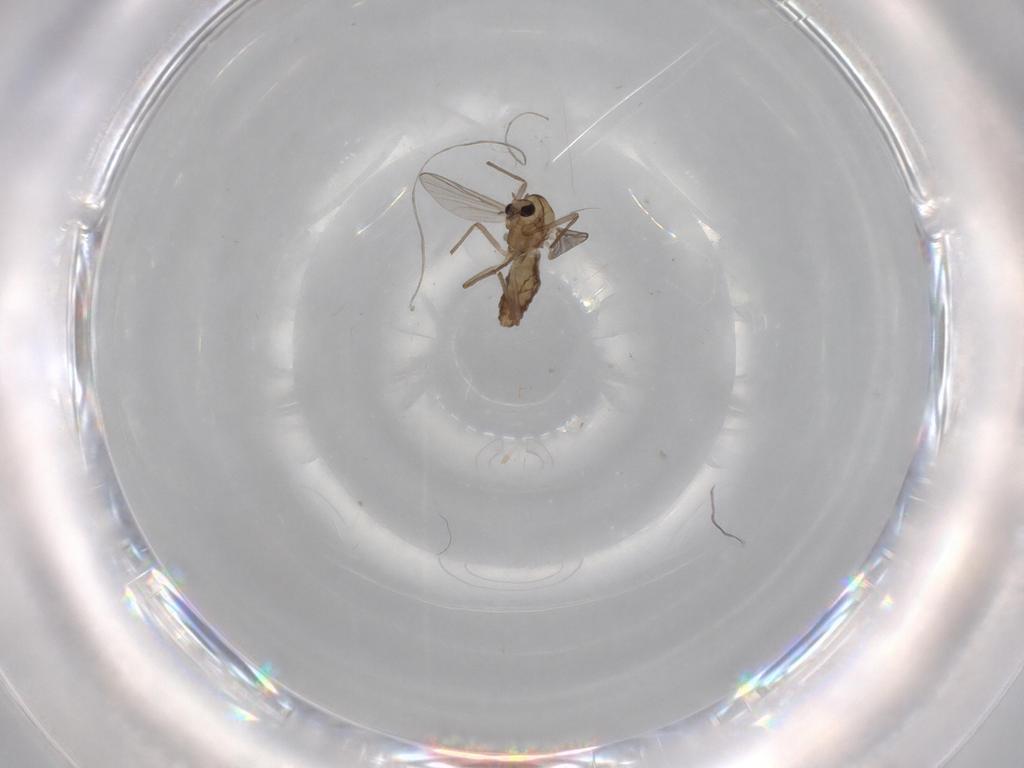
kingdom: Animalia
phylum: Arthropoda
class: Insecta
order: Diptera
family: Chironomidae
